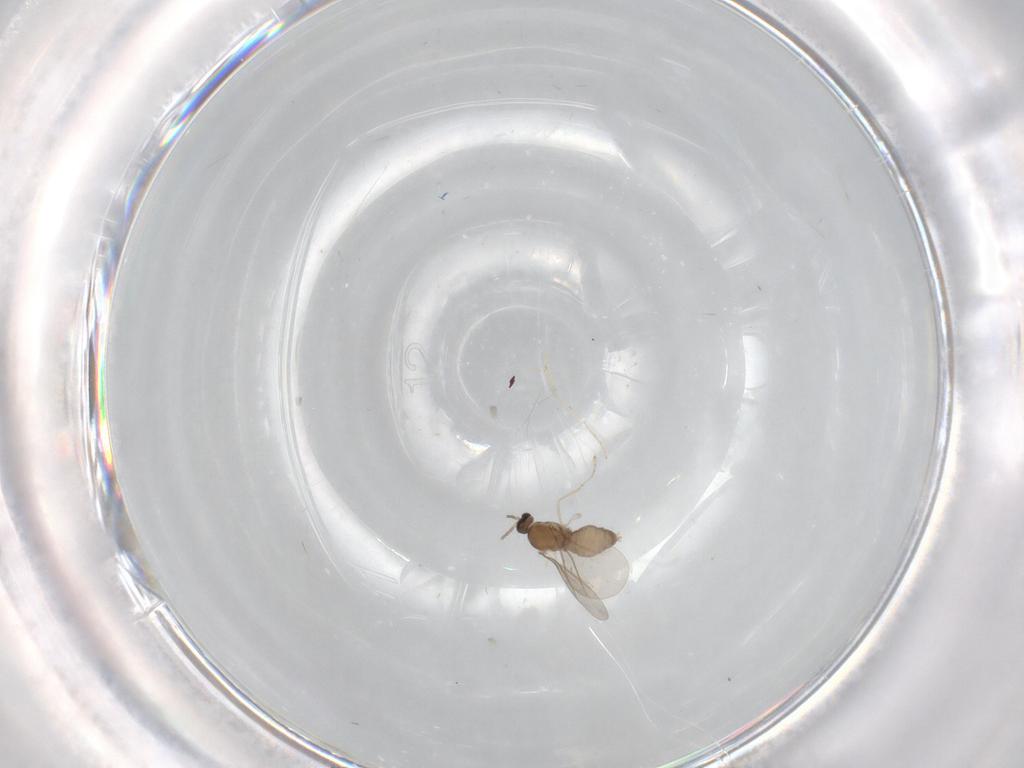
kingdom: Animalia
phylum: Arthropoda
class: Insecta
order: Diptera
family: Cecidomyiidae
